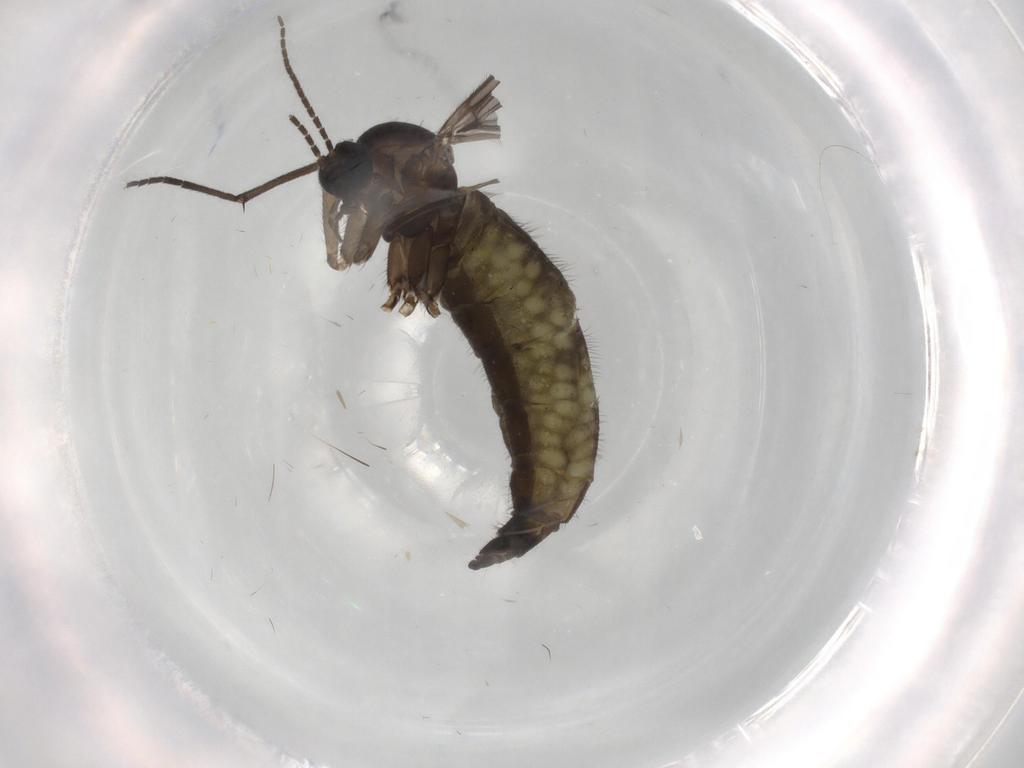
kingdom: Animalia
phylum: Arthropoda
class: Insecta
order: Diptera
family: Sciaridae
